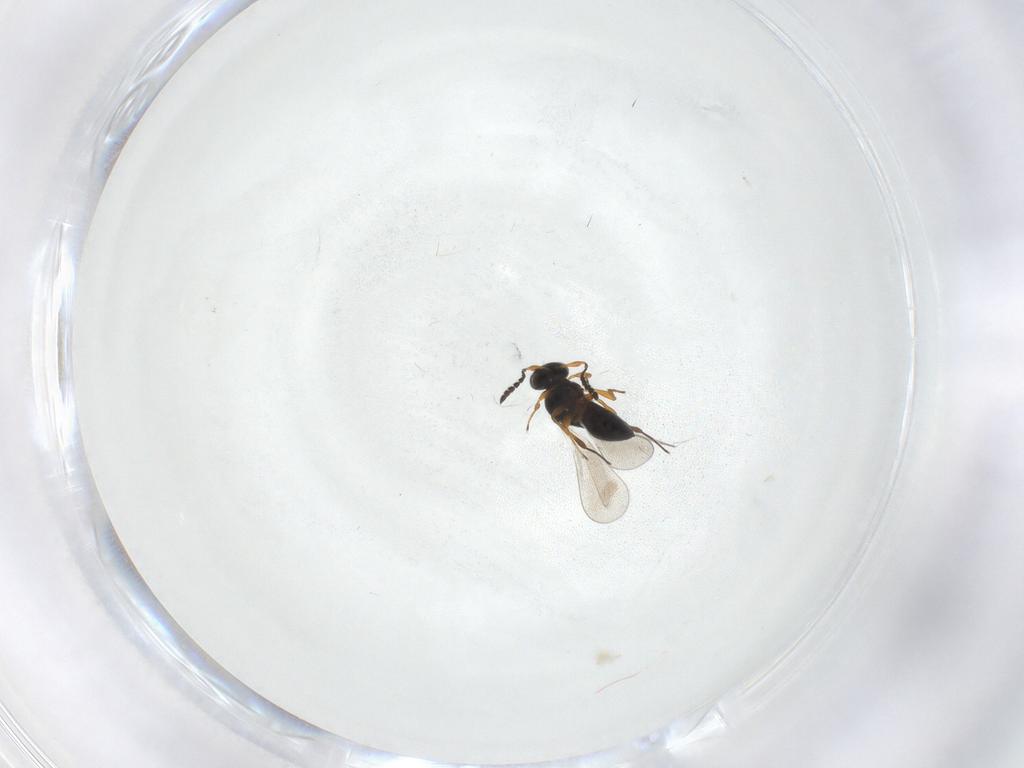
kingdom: Animalia
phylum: Arthropoda
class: Insecta
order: Hymenoptera
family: Platygastridae
